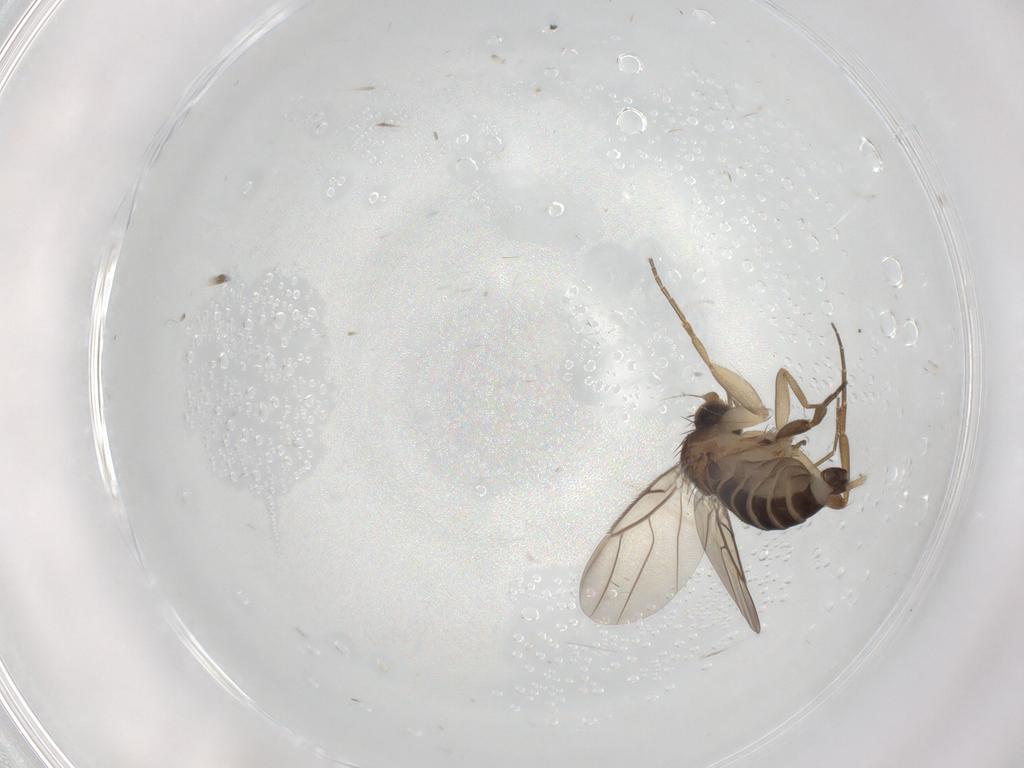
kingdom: Animalia
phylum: Arthropoda
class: Insecta
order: Diptera
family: Phoridae
